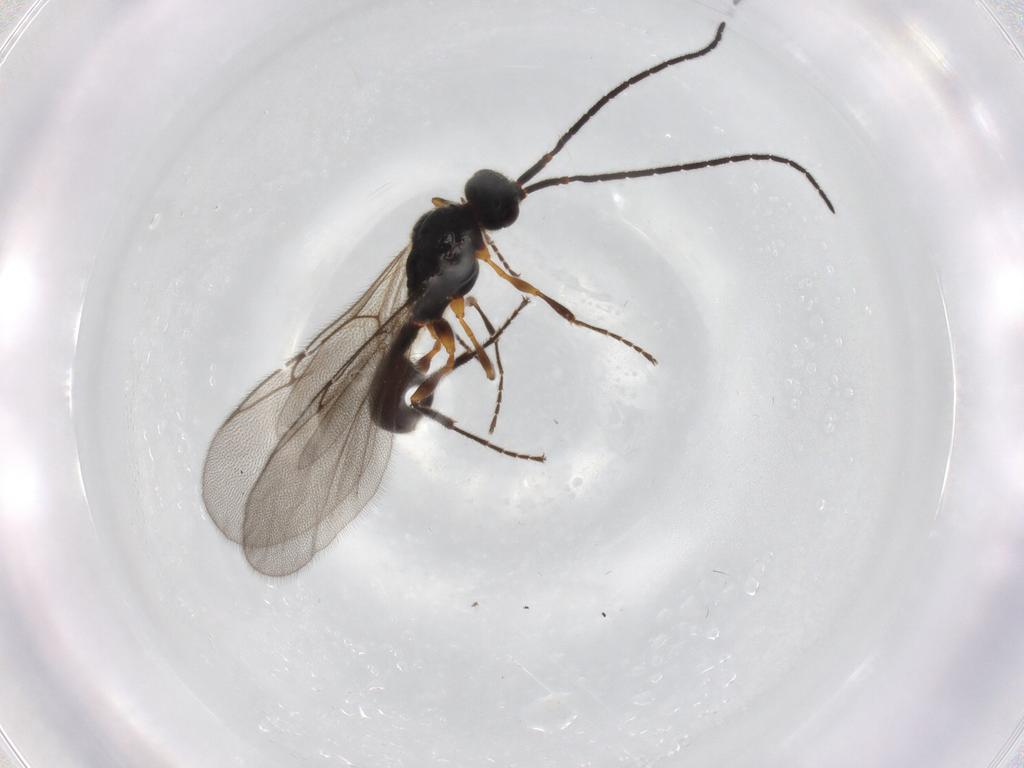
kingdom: Animalia
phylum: Arthropoda
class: Insecta
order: Hymenoptera
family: Diapriidae
